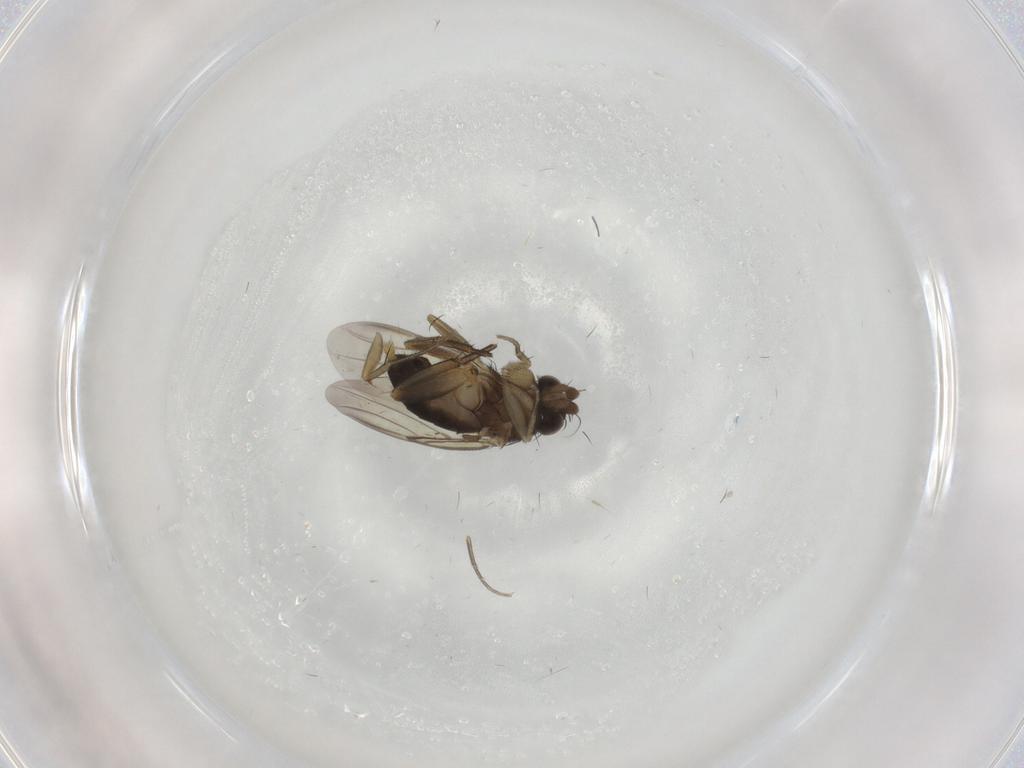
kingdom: Animalia
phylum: Arthropoda
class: Insecta
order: Diptera
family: Phoridae
